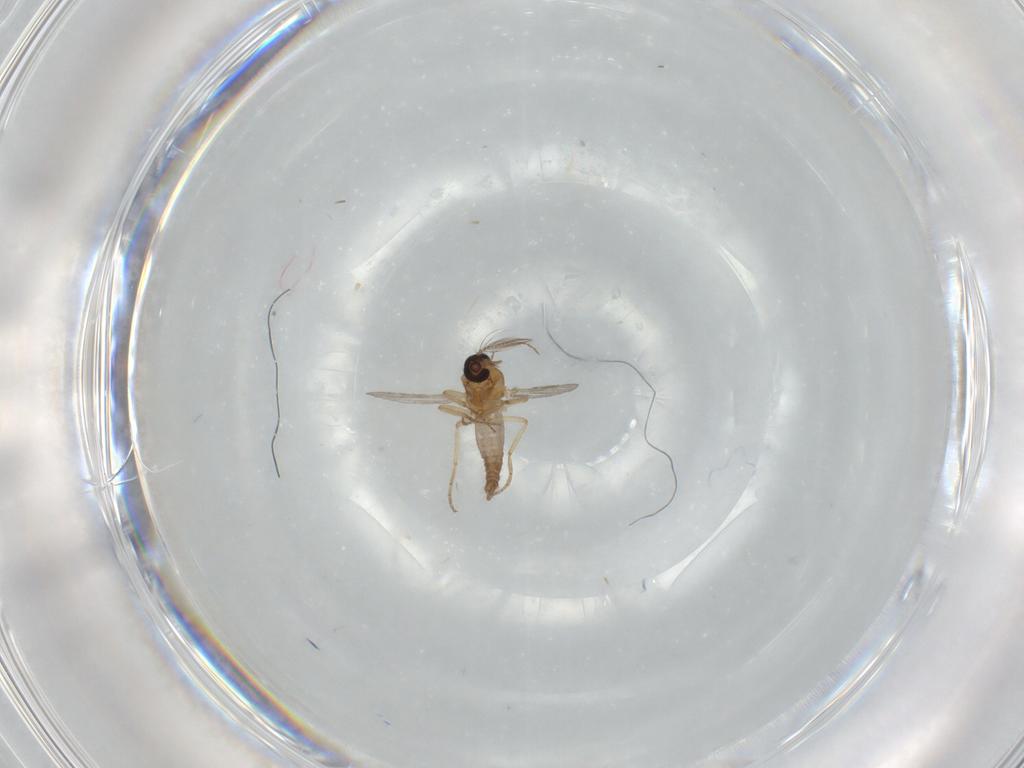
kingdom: Animalia
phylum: Arthropoda
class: Insecta
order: Diptera
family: Ceratopogonidae
